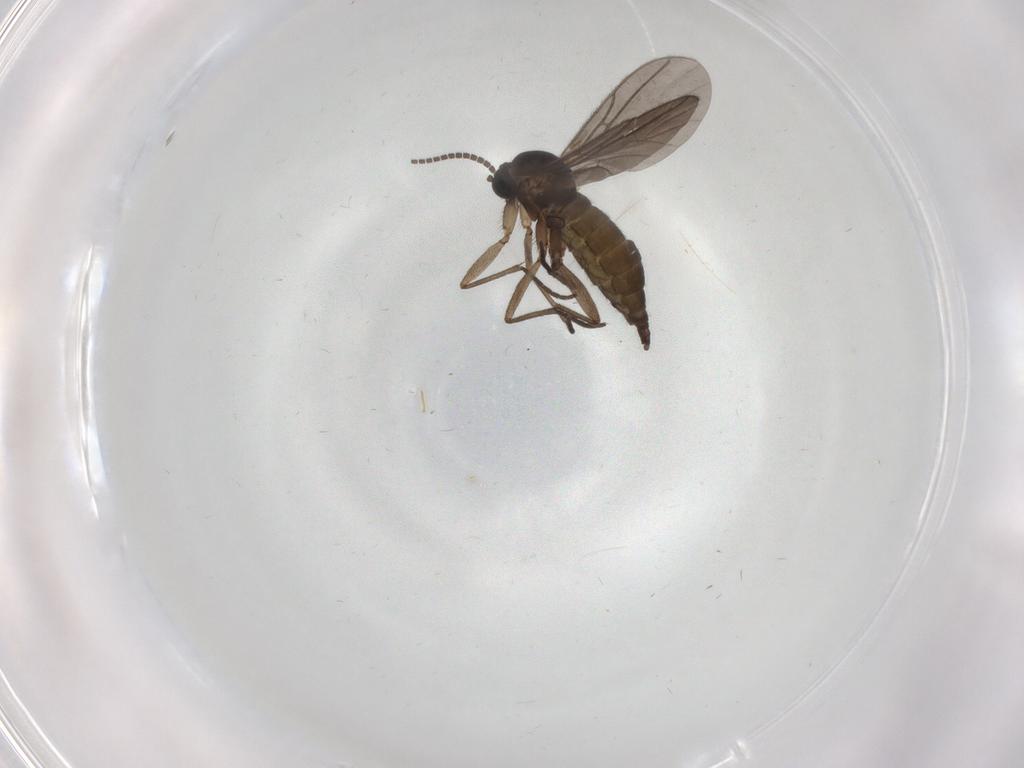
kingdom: Animalia
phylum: Arthropoda
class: Insecta
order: Diptera
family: Sciaridae
